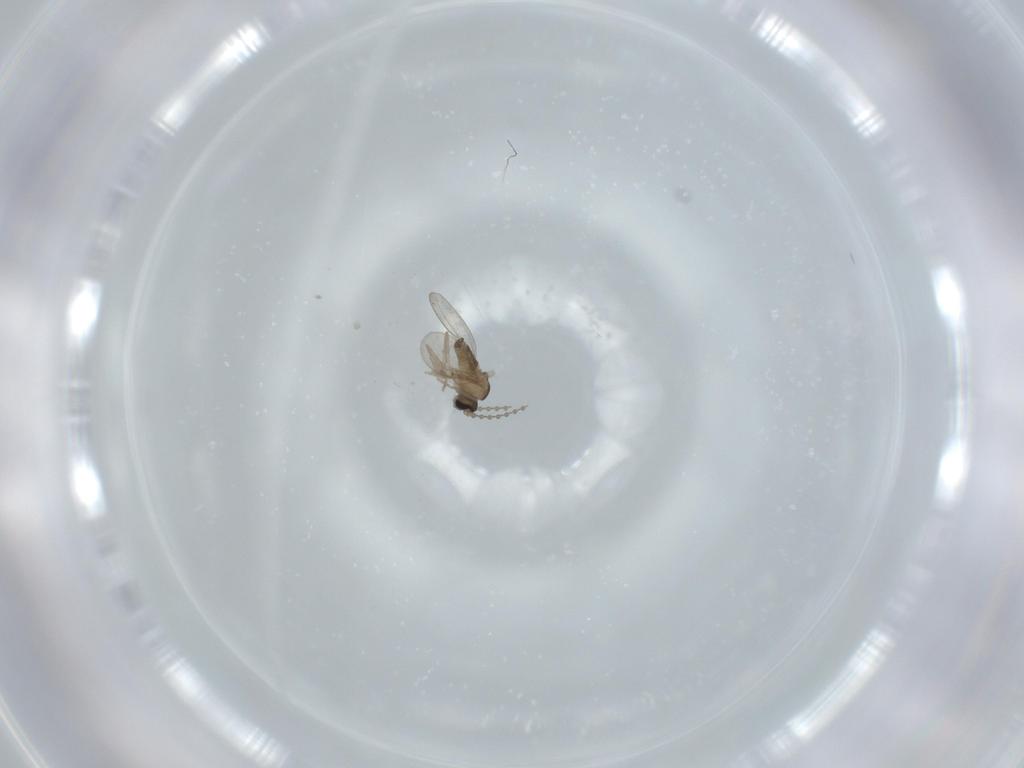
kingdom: Animalia
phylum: Arthropoda
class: Insecta
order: Diptera
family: Cecidomyiidae
